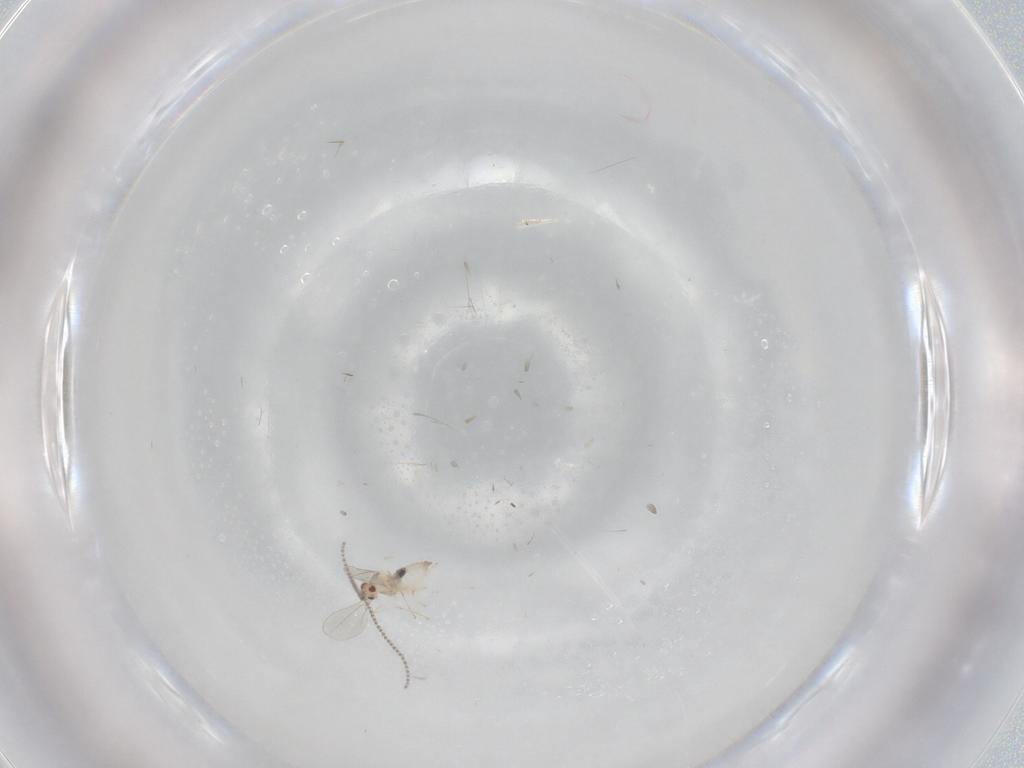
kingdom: Animalia
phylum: Arthropoda
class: Insecta
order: Diptera
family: Cecidomyiidae
